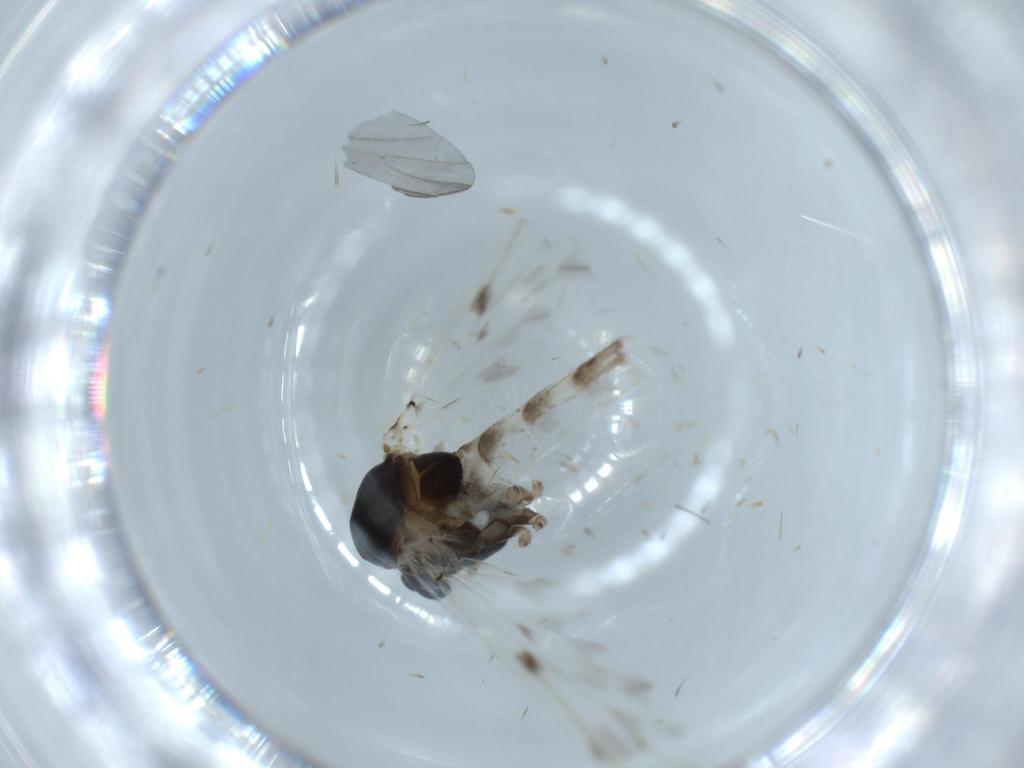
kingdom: Animalia
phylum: Arthropoda
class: Insecta
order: Diptera
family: Chironomidae
